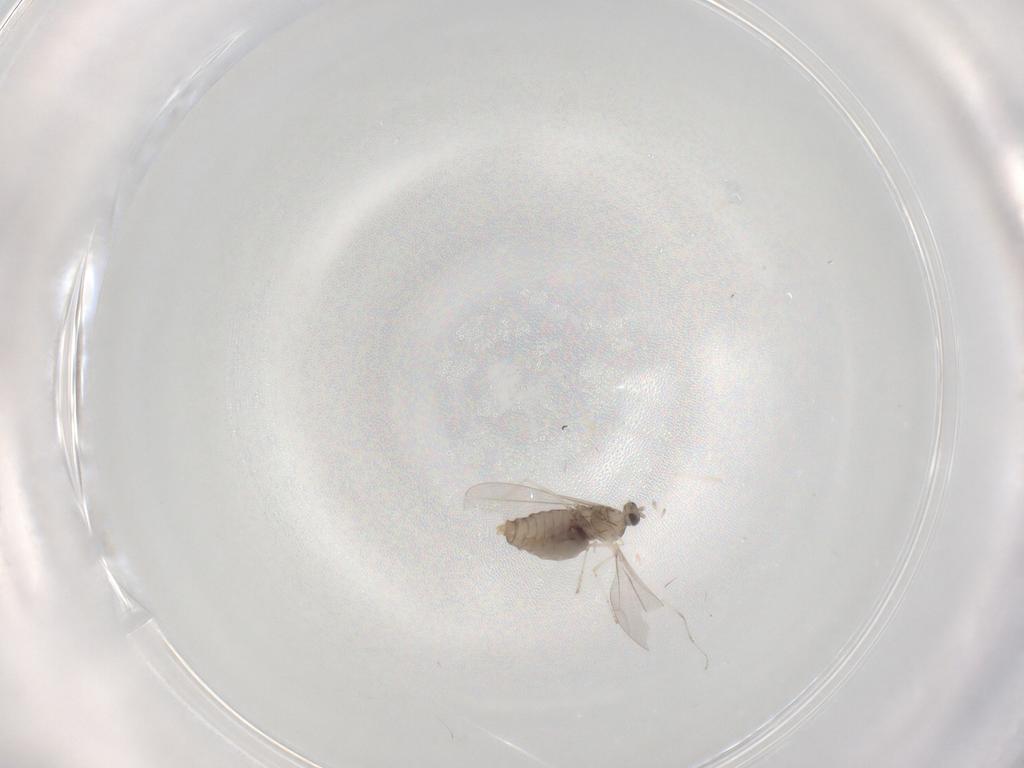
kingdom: Animalia
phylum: Arthropoda
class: Insecta
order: Diptera
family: Cecidomyiidae
